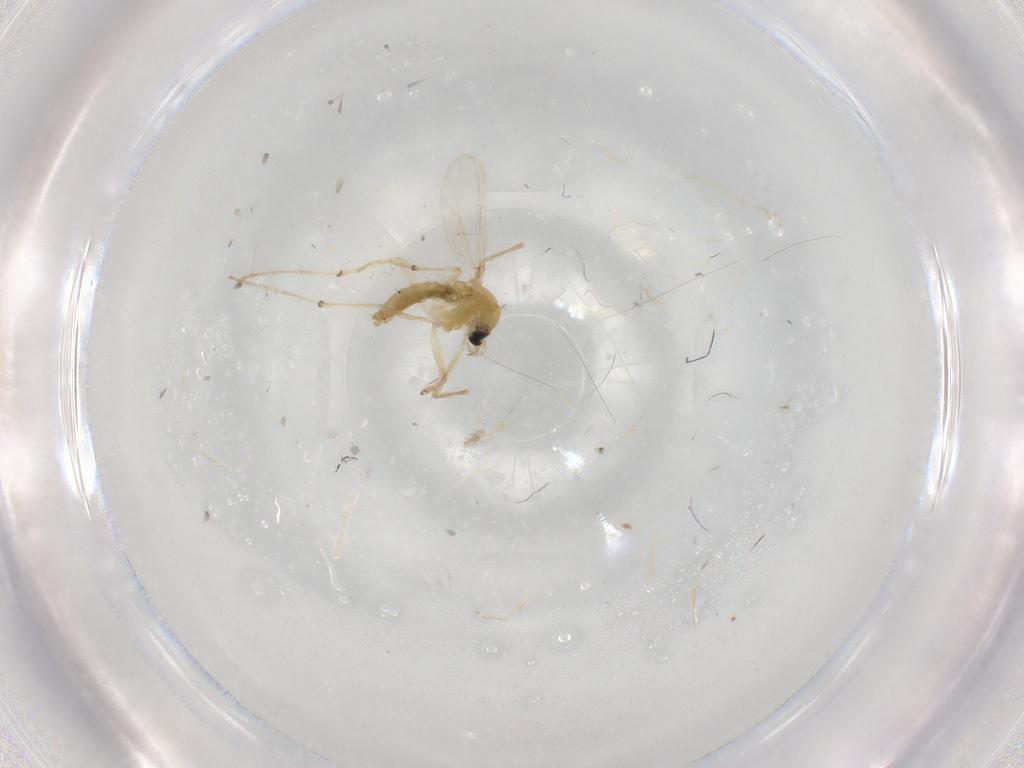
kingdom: Animalia
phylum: Arthropoda
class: Insecta
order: Diptera
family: Chironomidae
